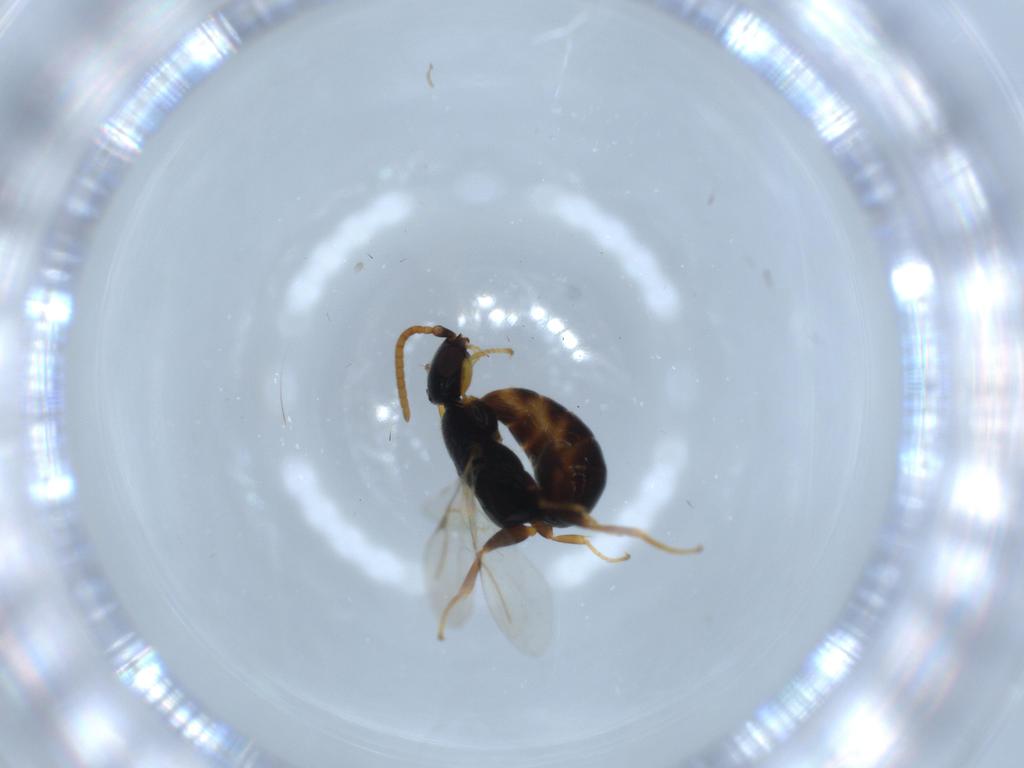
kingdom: Animalia
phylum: Arthropoda
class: Insecta
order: Hymenoptera
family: Bethylidae
